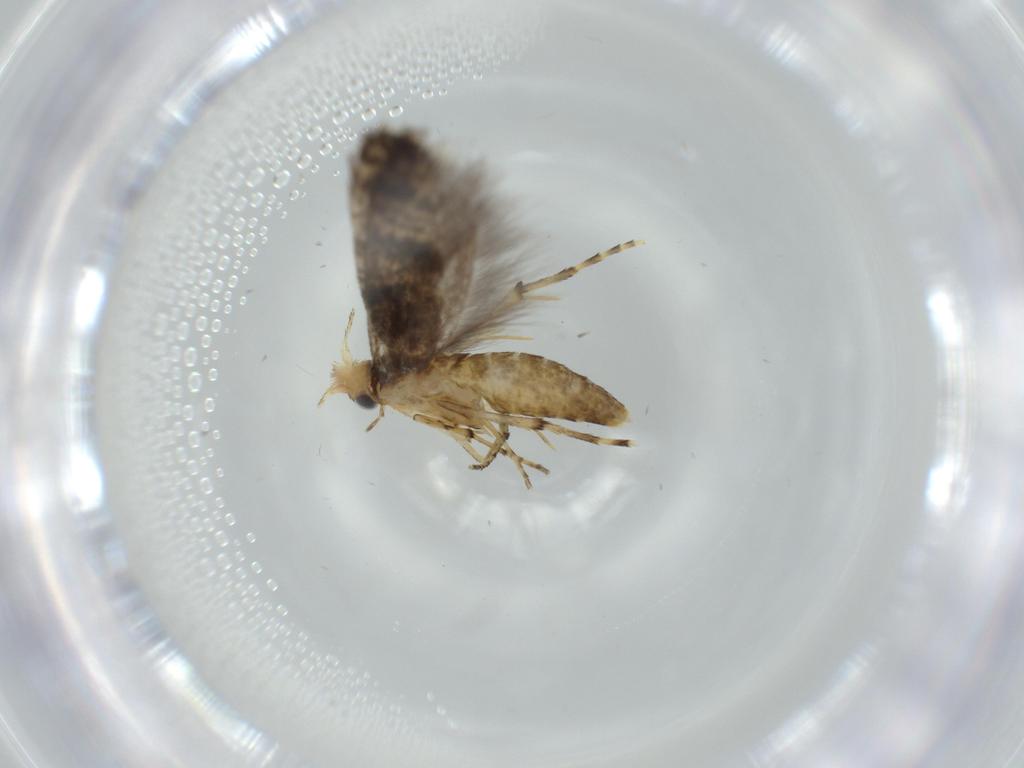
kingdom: Animalia
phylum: Arthropoda
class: Insecta
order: Lepidoptera
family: Argyresthiidae
